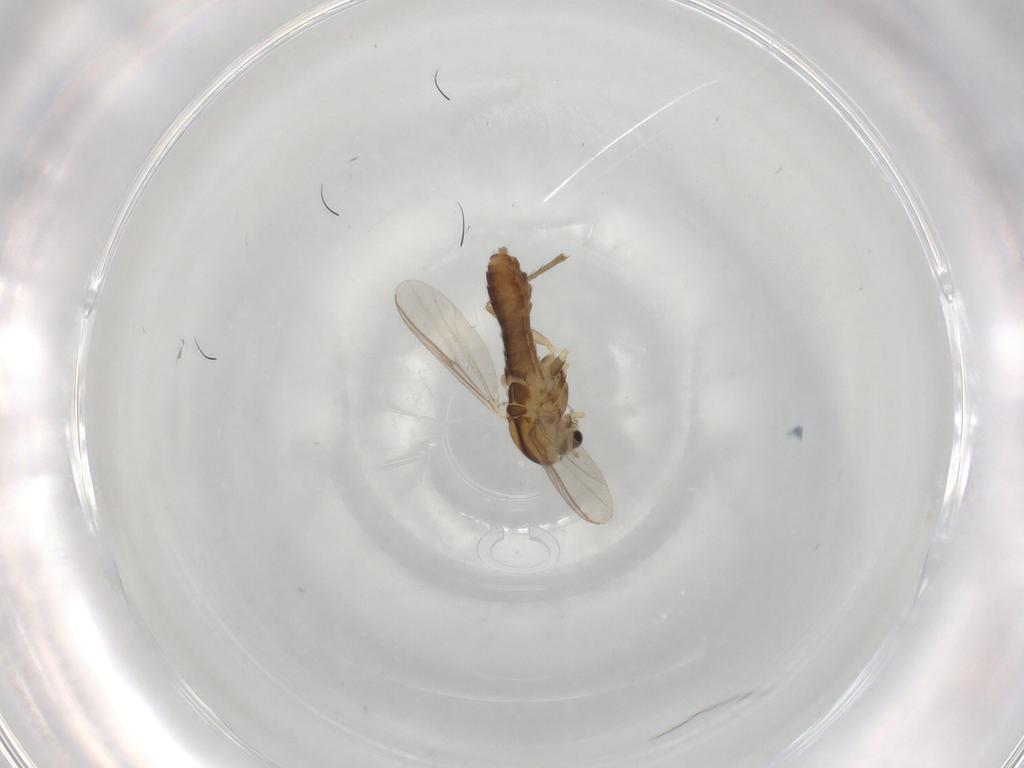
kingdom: Animalia
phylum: Arthropoda
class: Insecta
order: Diptera
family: Chironomidae
